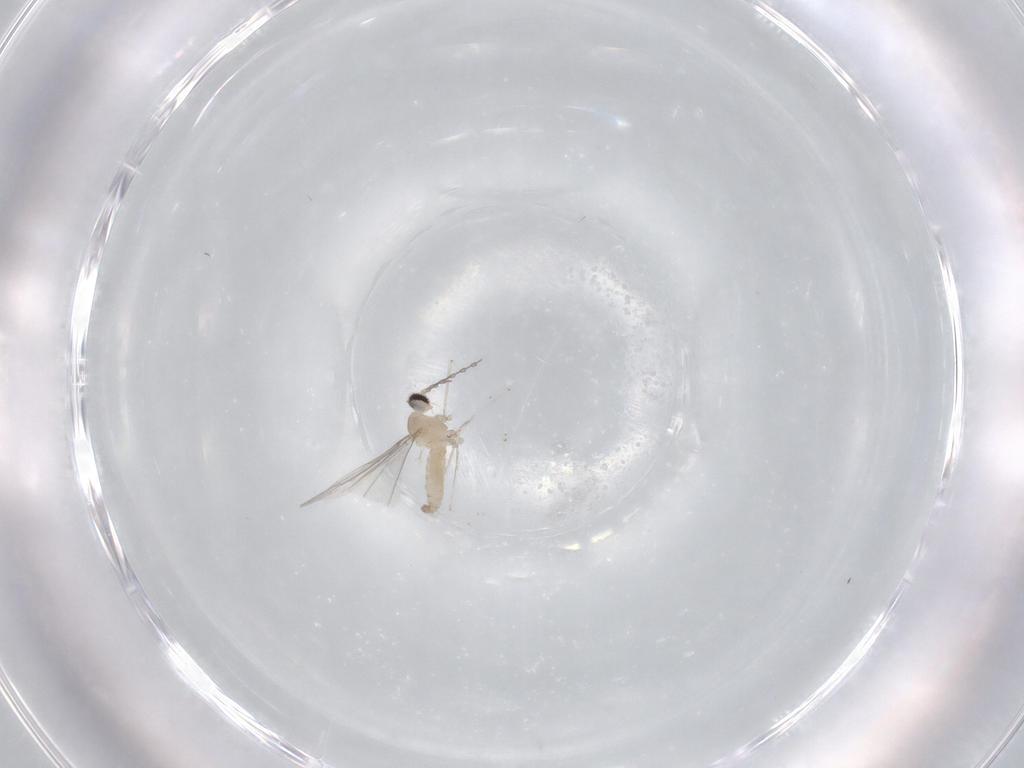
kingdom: Animalia
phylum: Arthropoda
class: Insecta
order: Diptera
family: Cecidomyiidae
